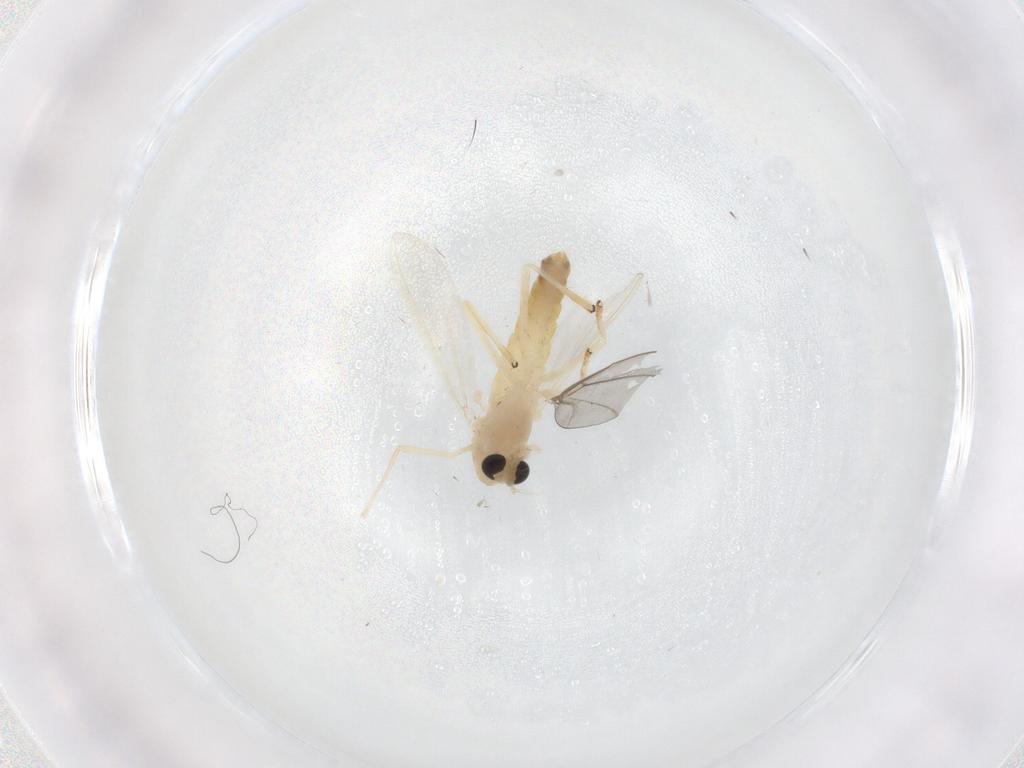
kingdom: Animalia
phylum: Arthropoda
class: Insecta
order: Diptera
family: Chironomidae
